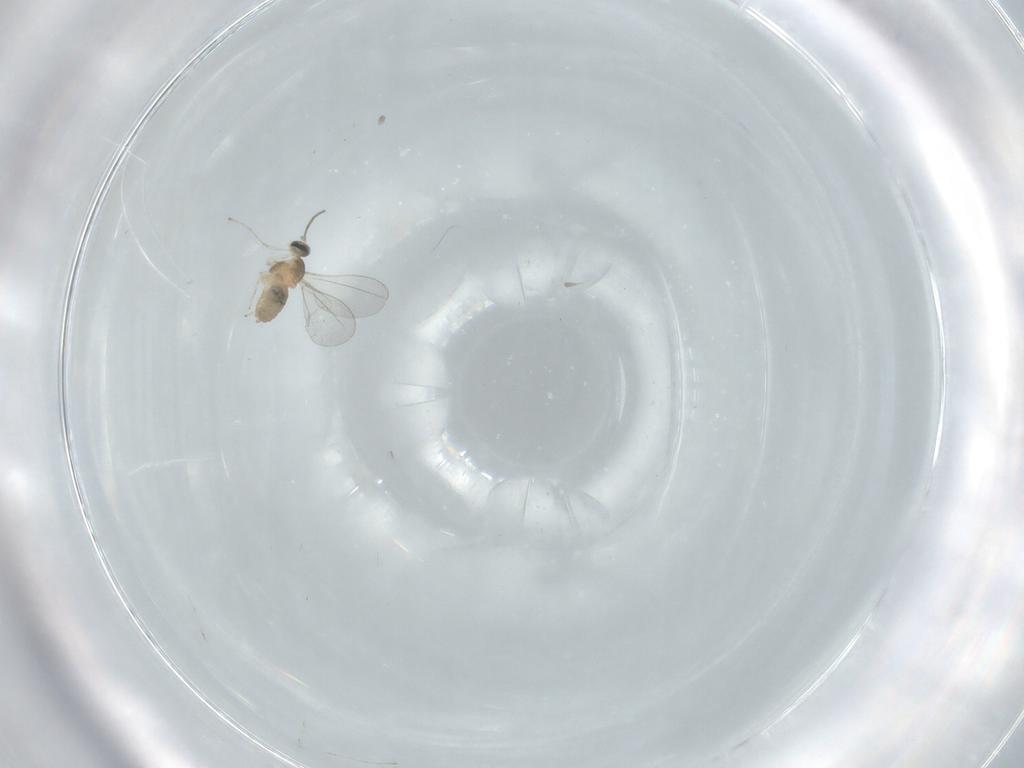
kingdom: Animalia
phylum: Arthropoda
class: Insecta
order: Diptera
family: Cecidomyiidae
